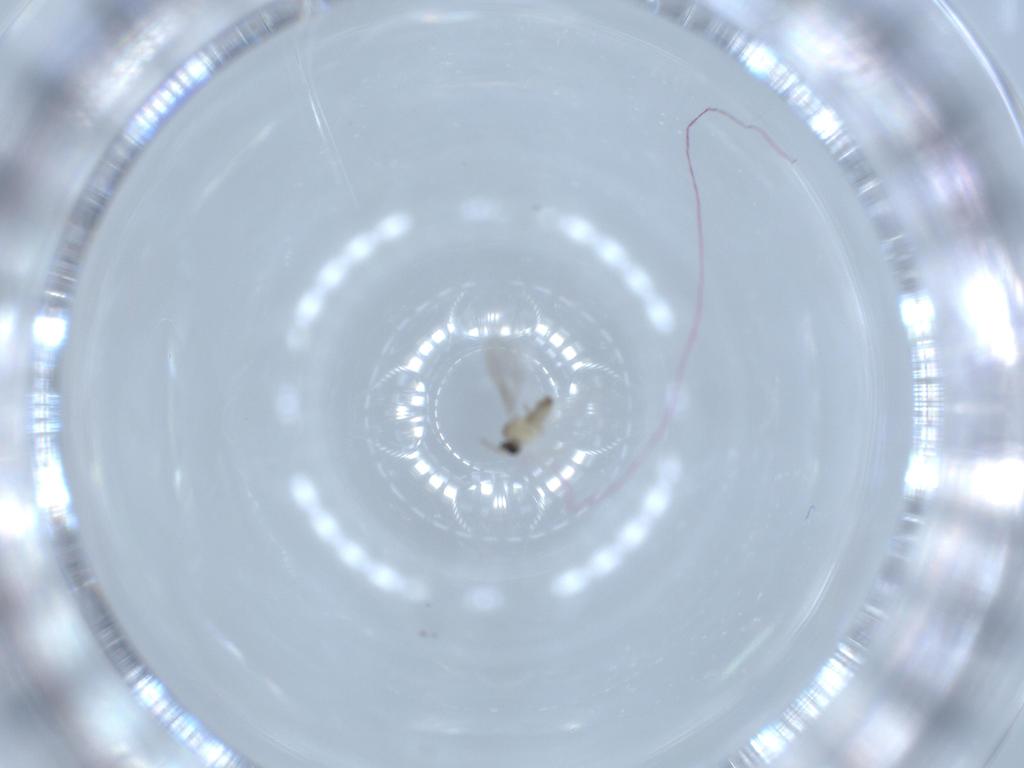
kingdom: Animalia
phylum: Arthropoda
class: Insecta
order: Diptera
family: Cecidomyiidae
